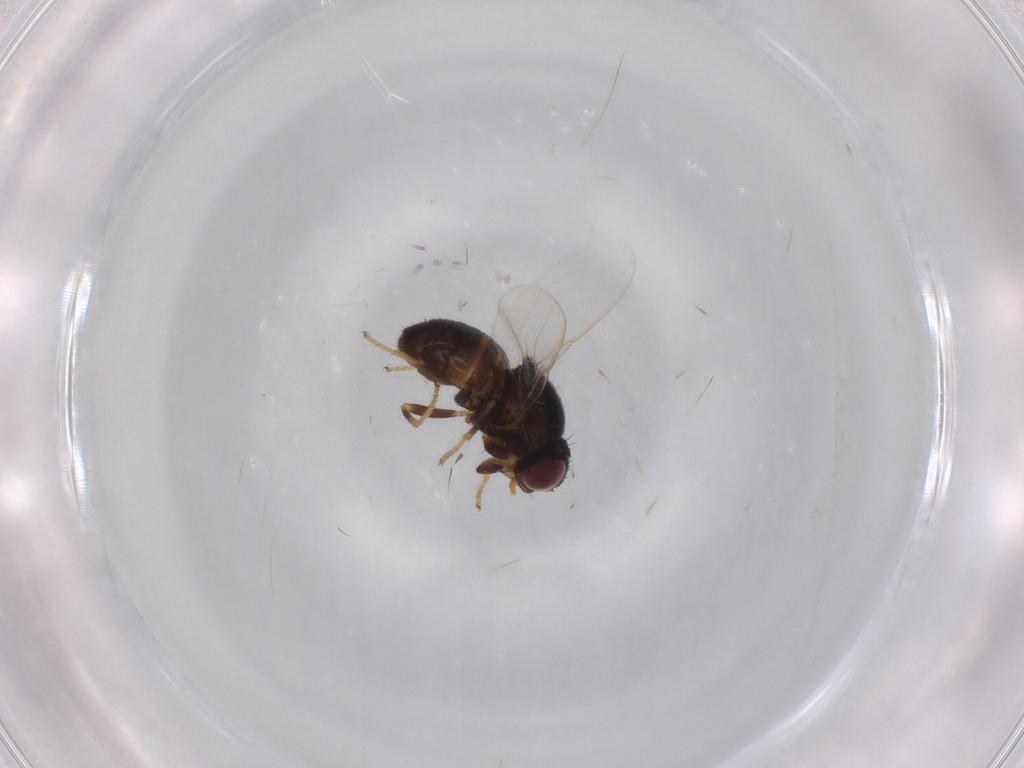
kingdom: Animalia
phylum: Arthropoda
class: Insecta
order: Diptera
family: Chloropidae
